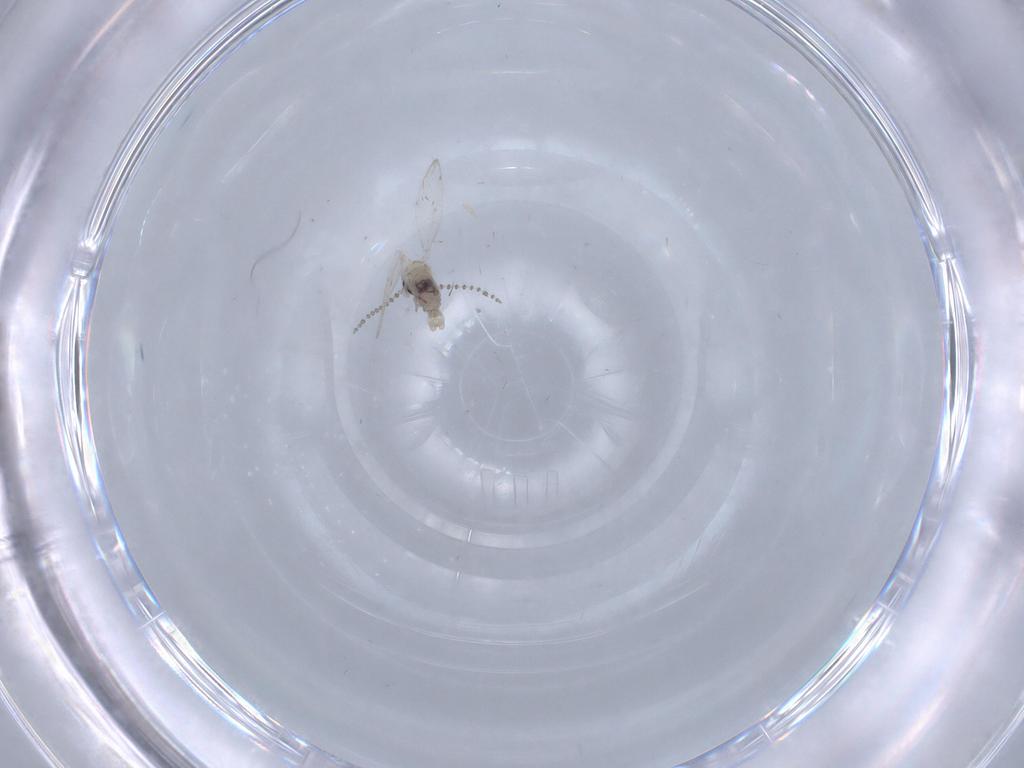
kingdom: Animalia
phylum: Arthropoda
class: Insecta
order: Diptera
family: Psychodidae
